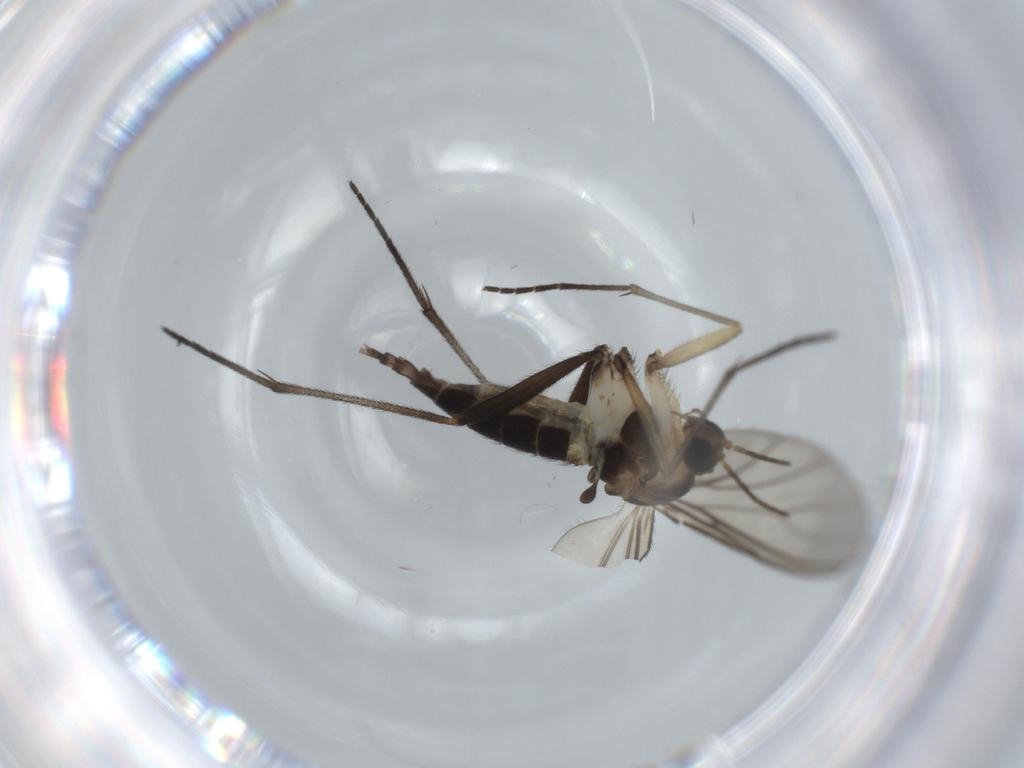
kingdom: Animalia
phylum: Arthropoda
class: Insecta
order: Diptera
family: Sciaridae
